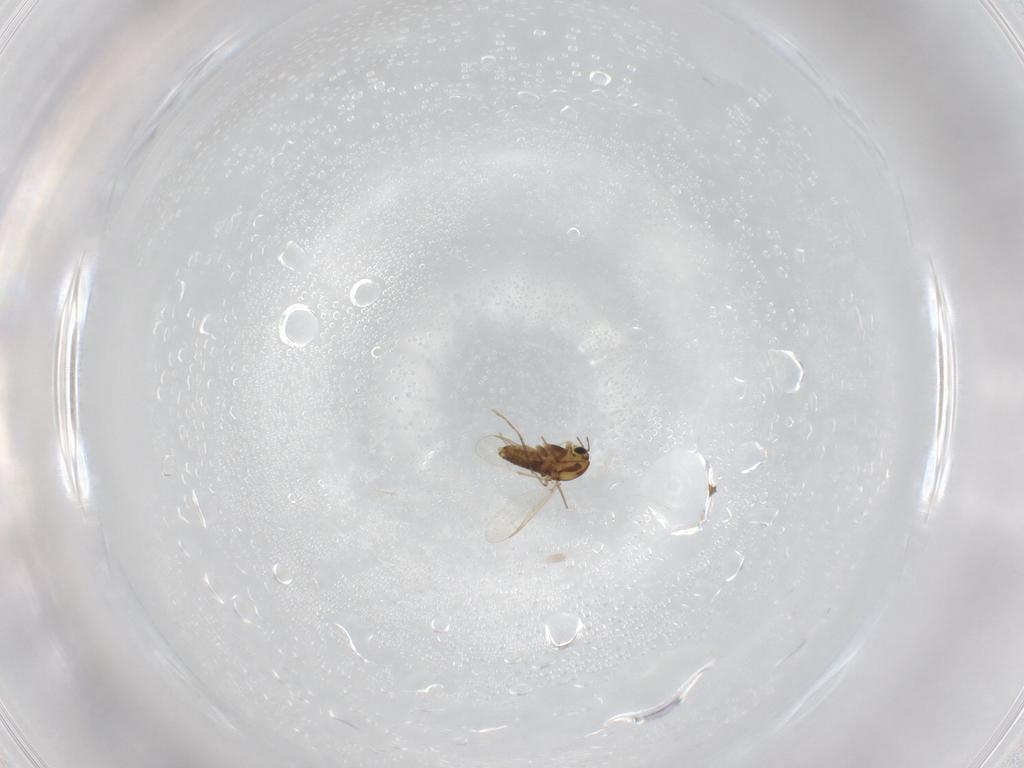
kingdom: Animalia
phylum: Arthropoda
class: Insecta
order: Diptera
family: Chironomidae
